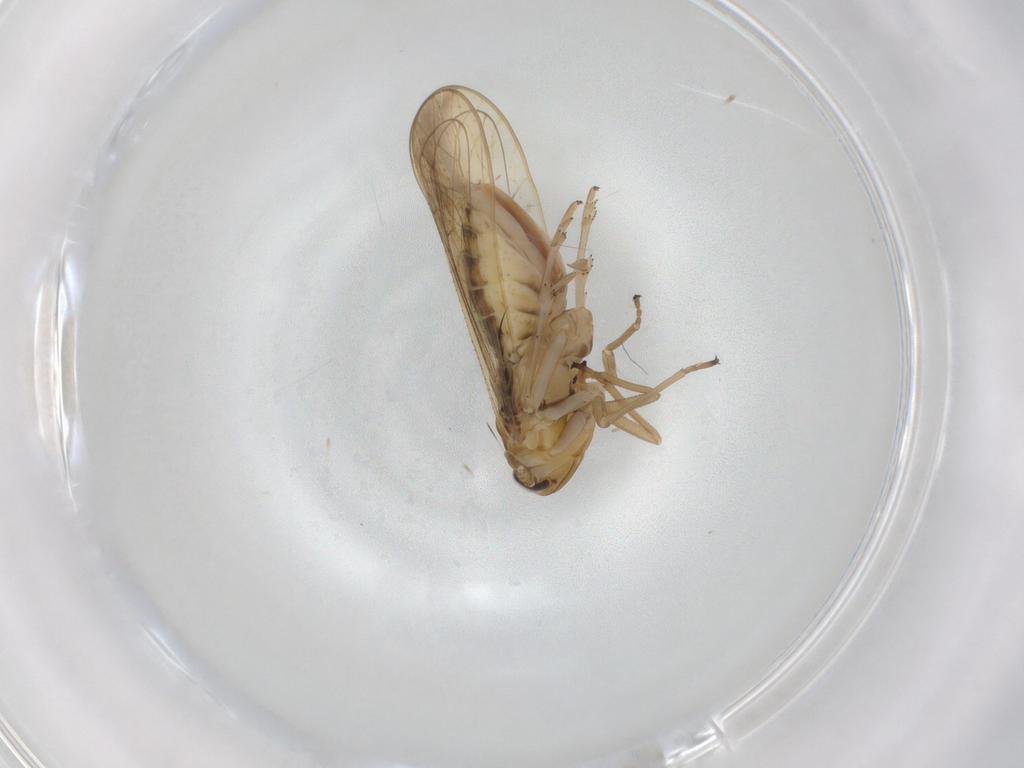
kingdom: Animalia
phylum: Arthropoda
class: Insecta
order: Hemiptera
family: Delphacidae
